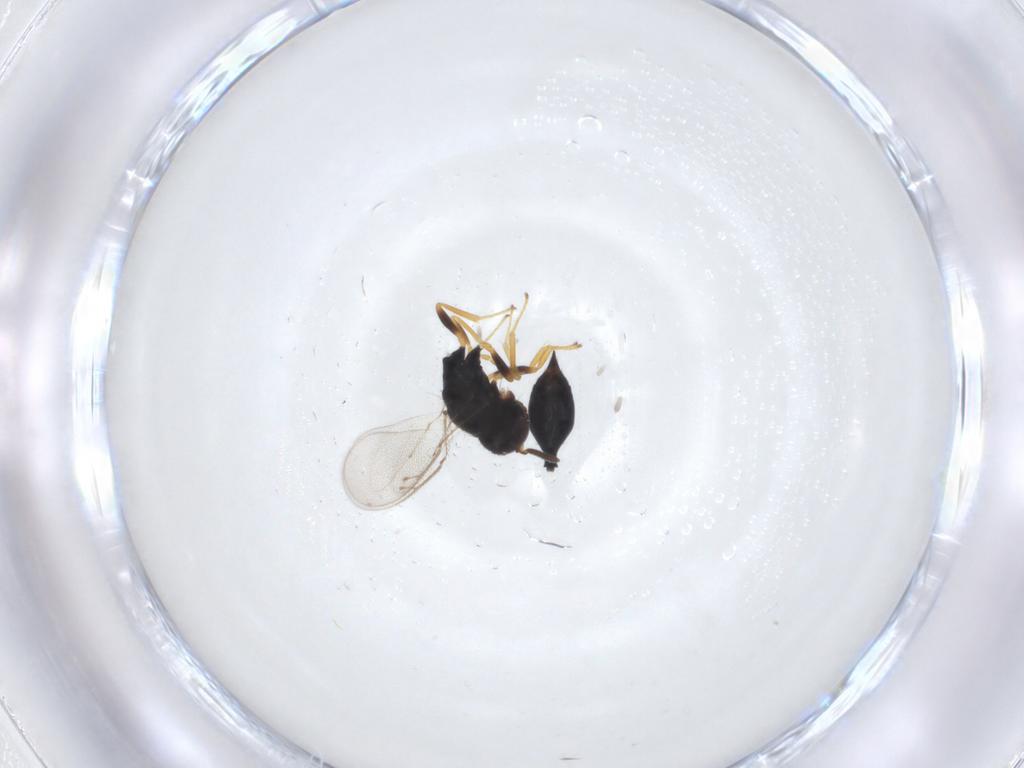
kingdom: Animalia
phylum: Arthropoda
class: Insecta
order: Hymenoptera
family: Pteromalidae
